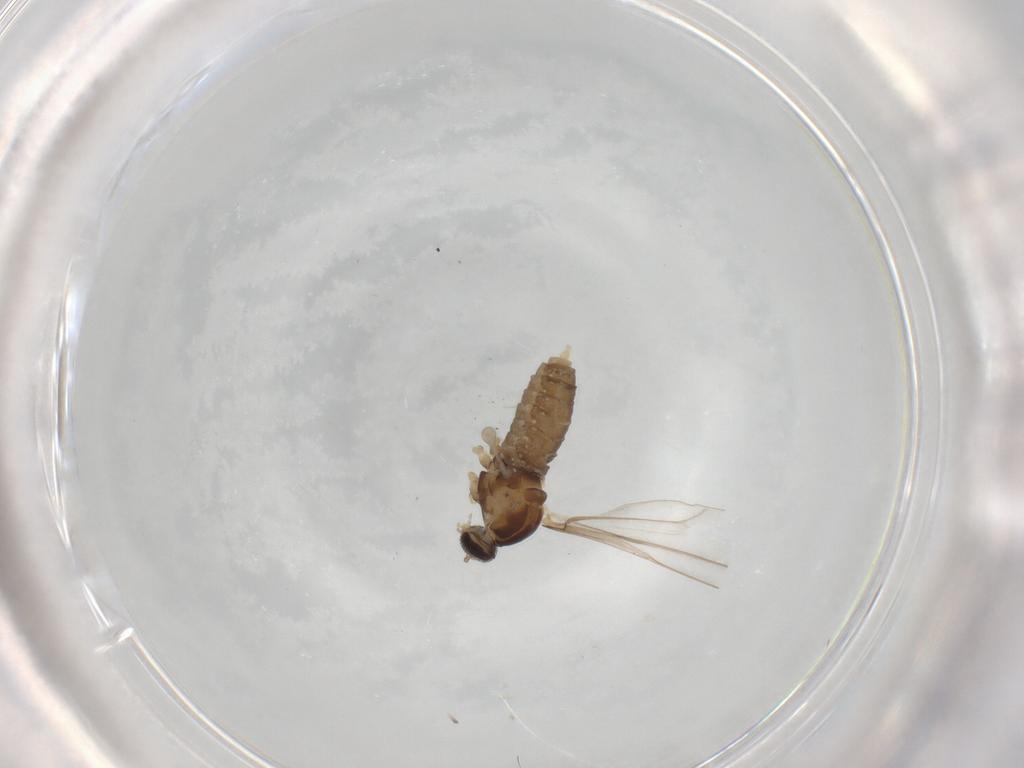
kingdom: Animalia
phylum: Arthropoda
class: Insecta
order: Diptera
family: Cecidomyiidae
